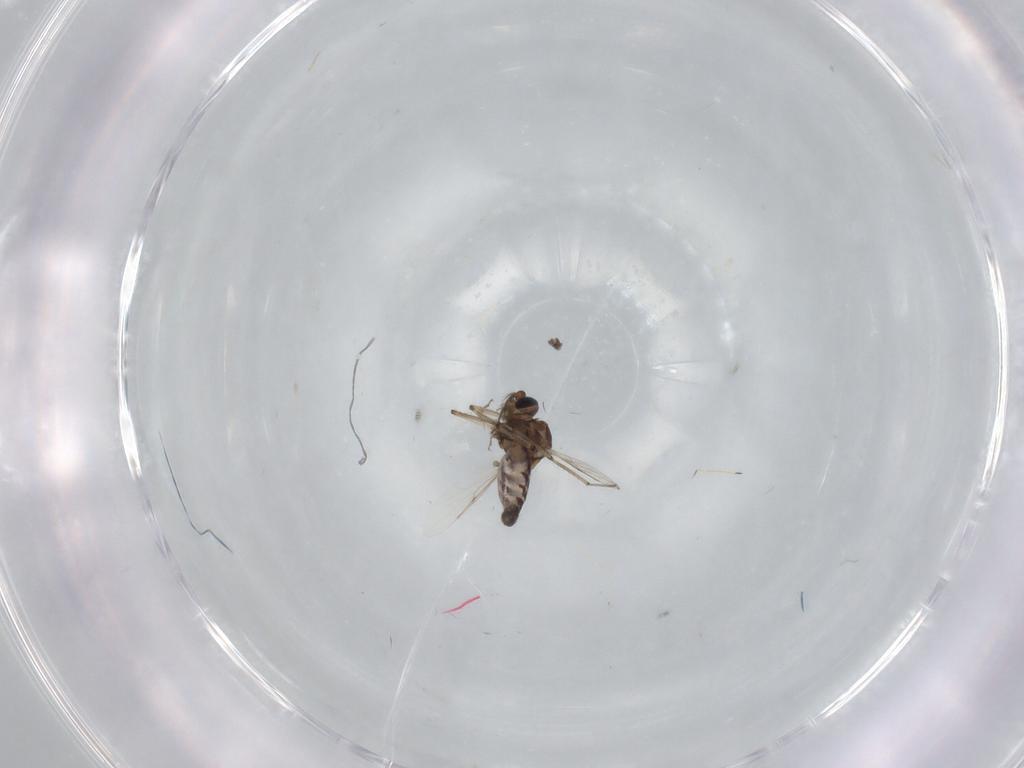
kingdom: Animalia
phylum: Arthropoda
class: Insecta
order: Diptera
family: Ceratopogonidae
